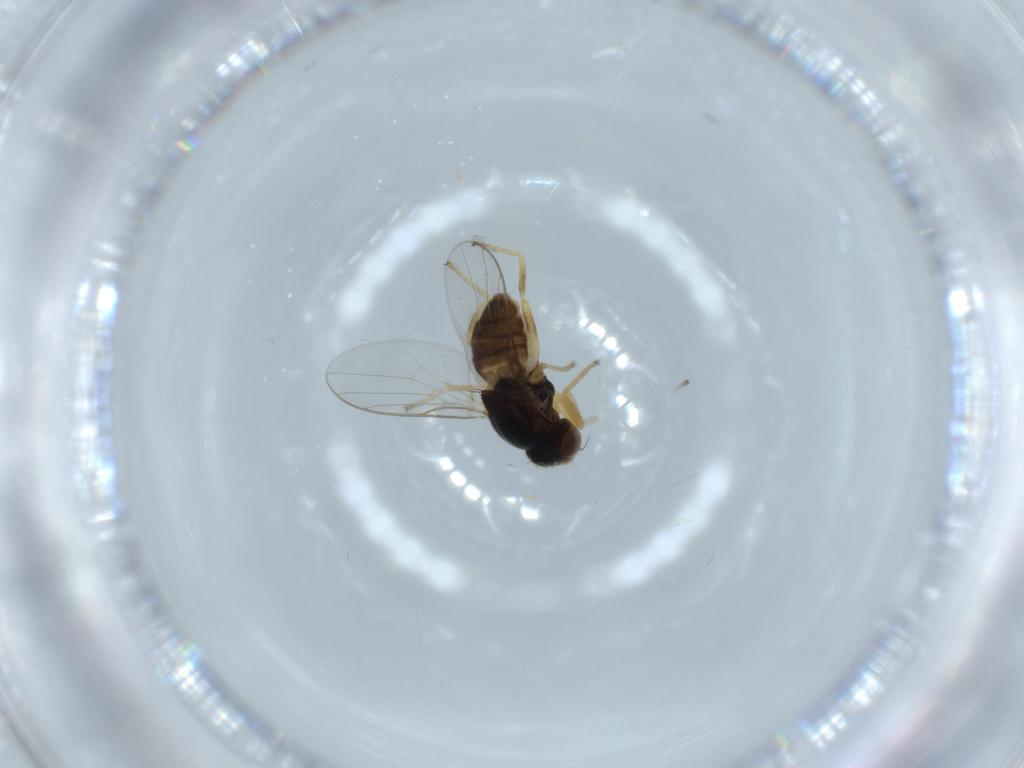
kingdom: Animalia
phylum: Arthropoda
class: Insecta
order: Diptera
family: Chloropidae
